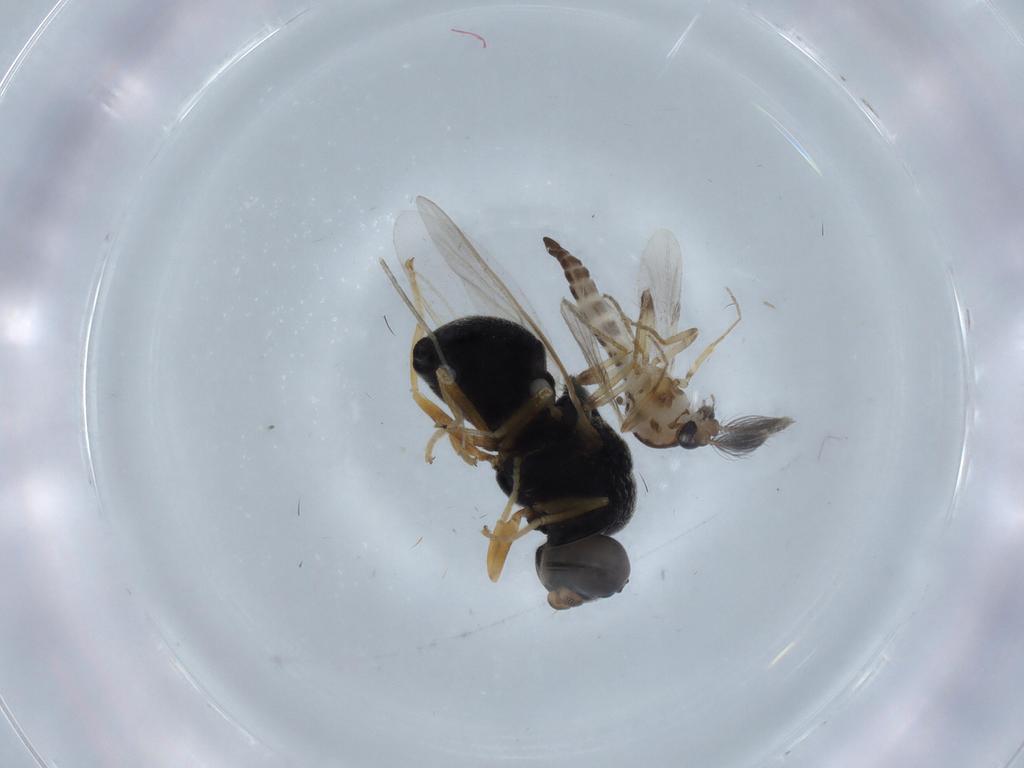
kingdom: Animalia
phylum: Arthropoda
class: Insecta
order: Diptera
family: Stratiomyidae
